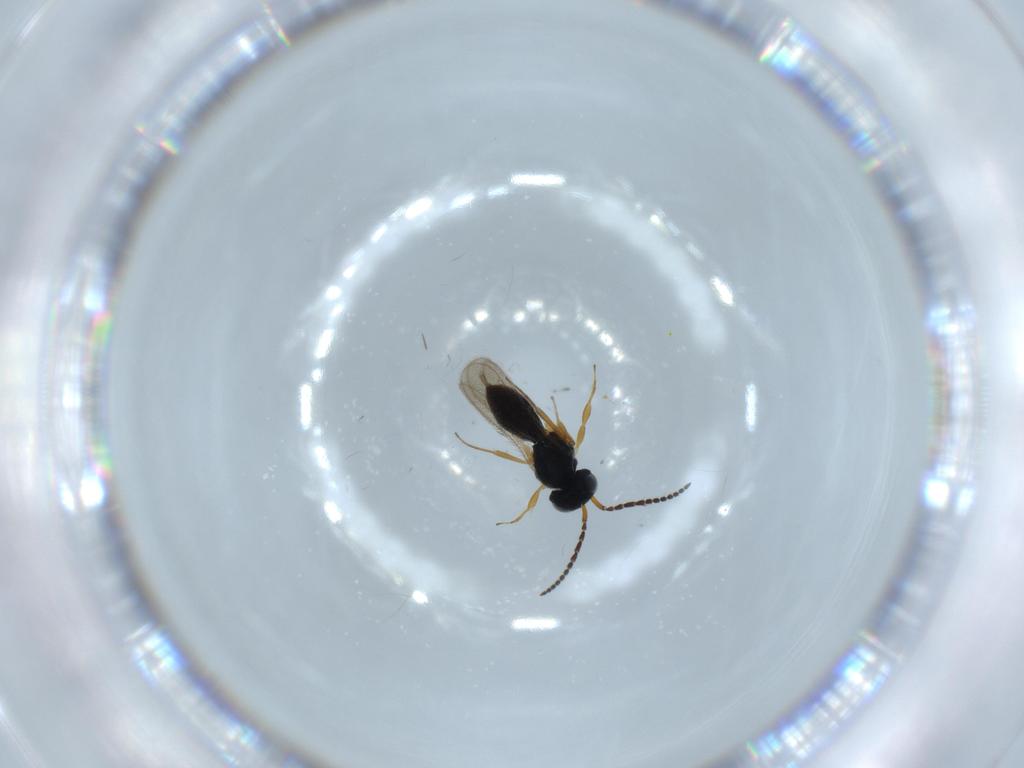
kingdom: Animalia
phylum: Arthropoda
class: Insecta
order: Hymenoptera
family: Scelionidae
